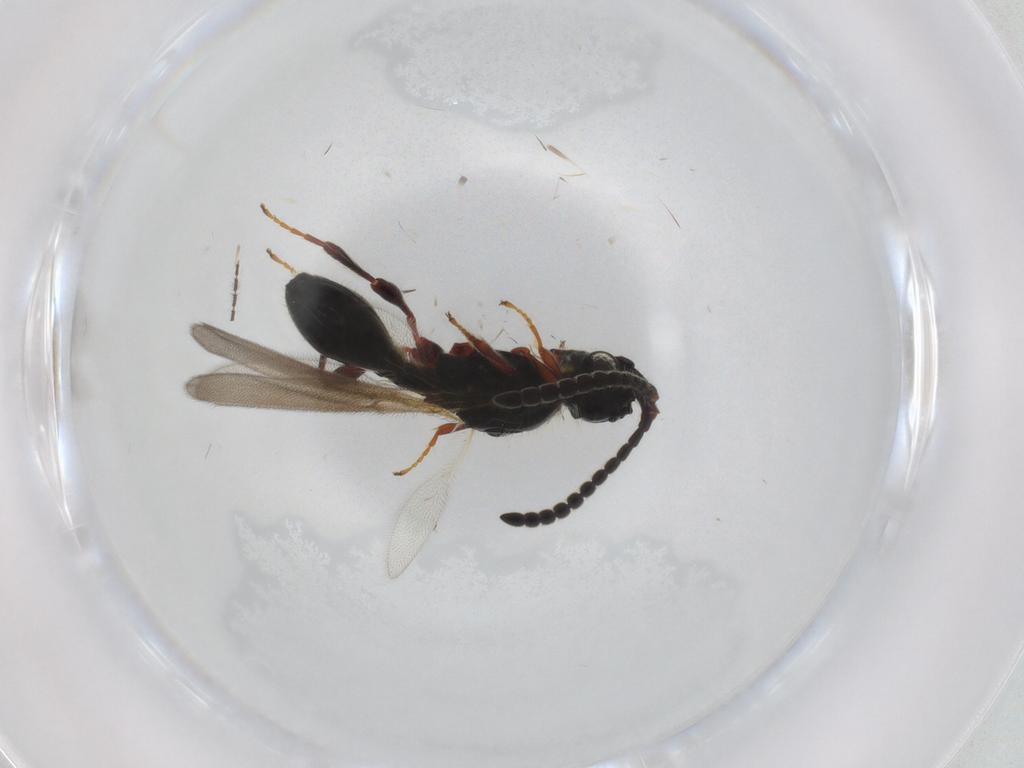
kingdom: Animalia
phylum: Arthropoda
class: Insecta
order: Hymenoptera
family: Diapriidae
